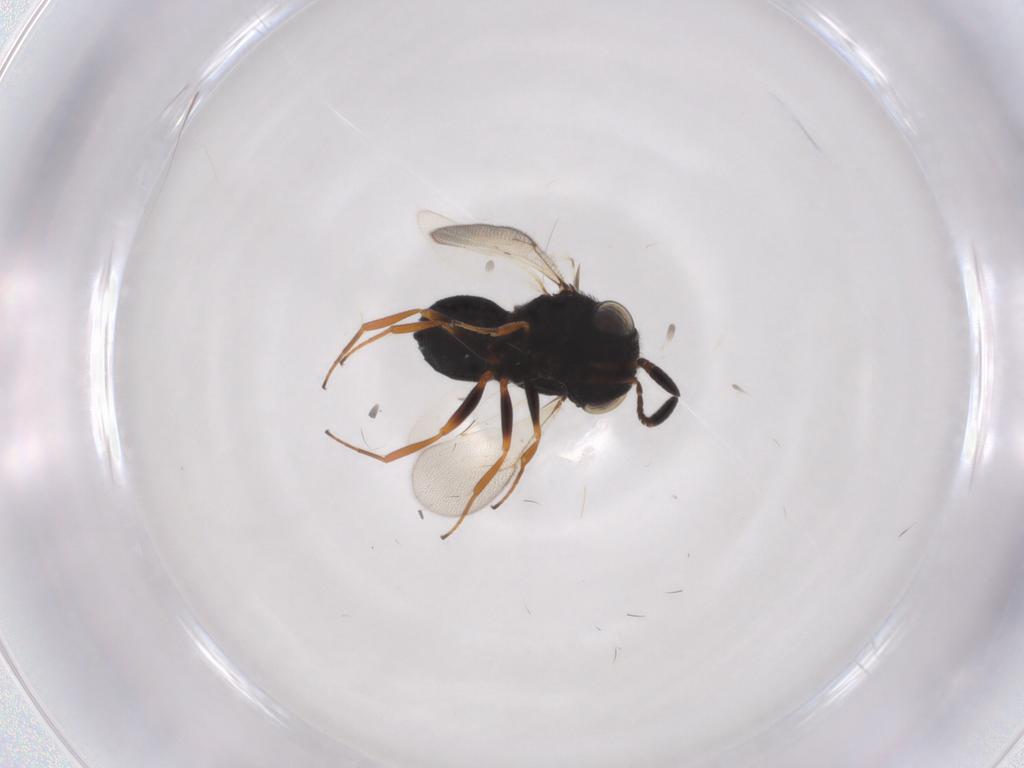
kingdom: Animalia
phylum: Arthropoda
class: Insecta
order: Hymenoptera
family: Scelionidae
